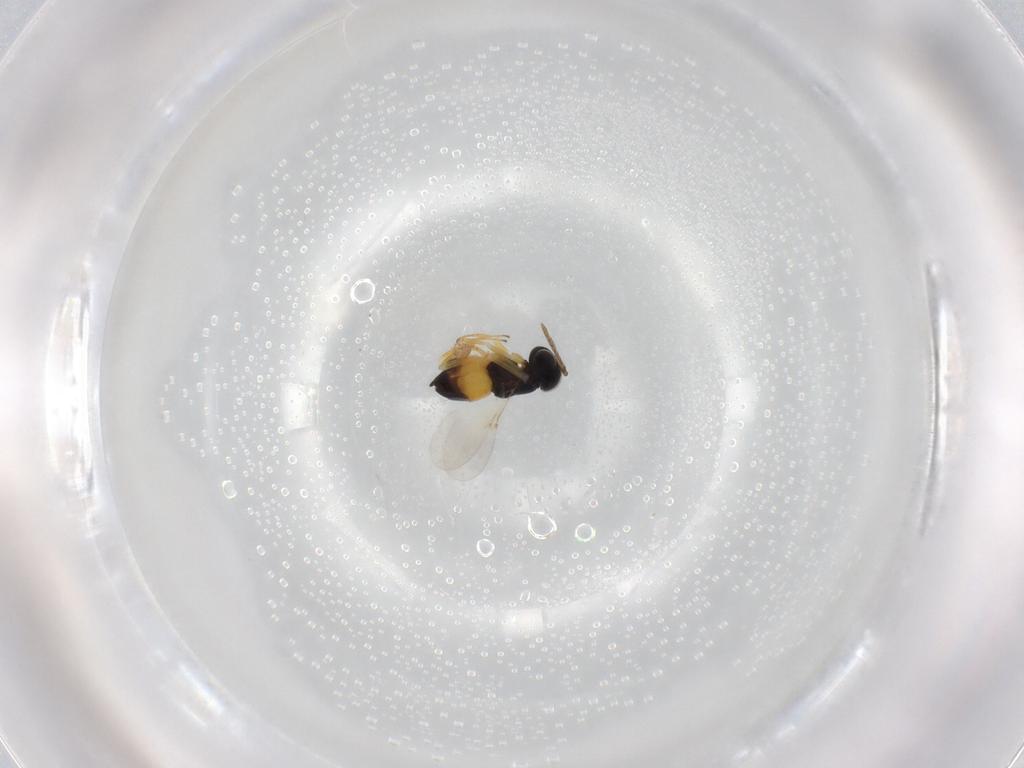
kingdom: Animalia
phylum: Arthropoda
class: Insecta
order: Hymenoptera
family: Encyrtidae
